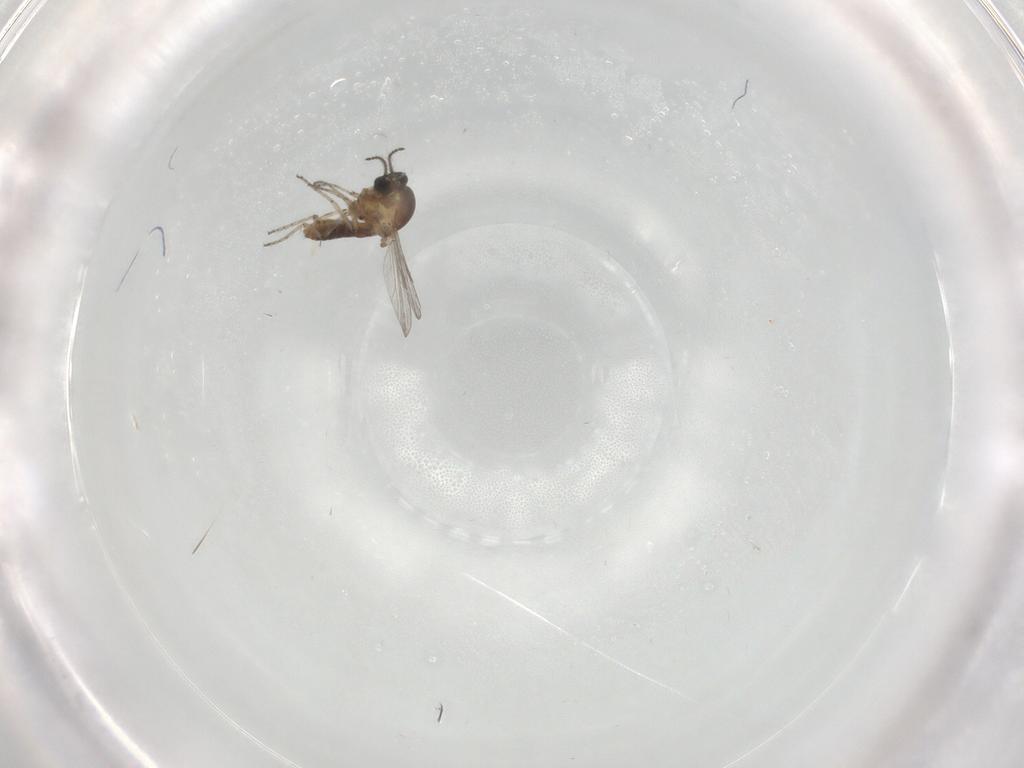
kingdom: Animalia
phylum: Arthropoda
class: Insecta
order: Diptera
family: Ceratopogonidae
